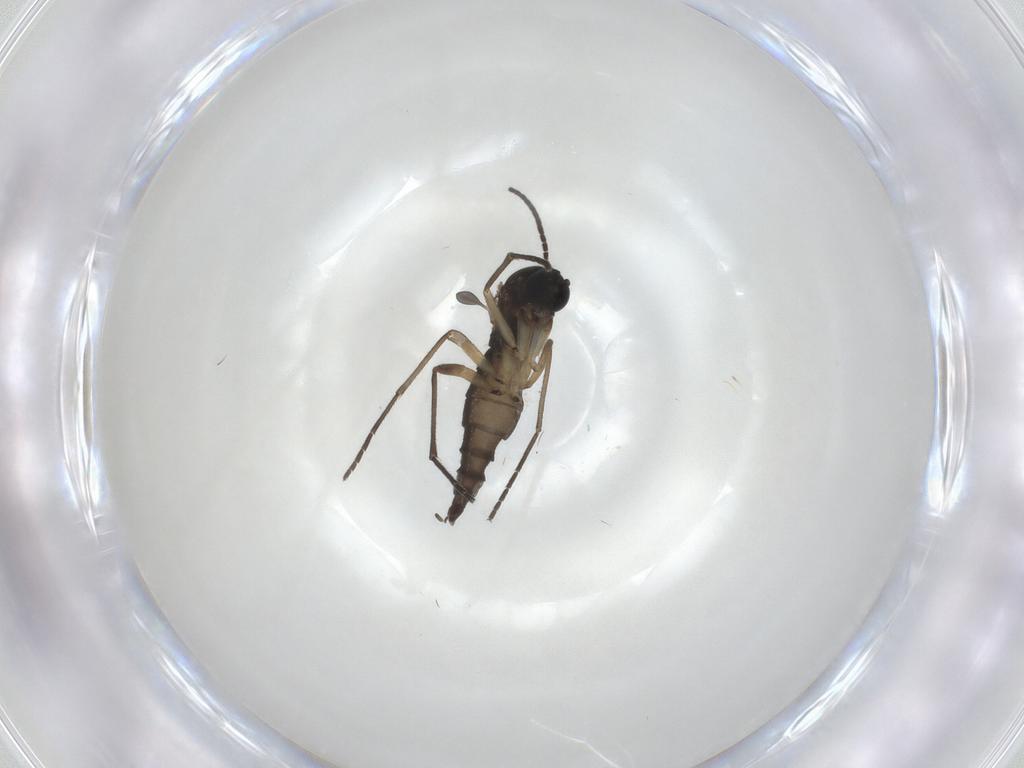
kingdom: Animalia
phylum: Arthropoda
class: Insecta
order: Diptera
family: Sciaridae
